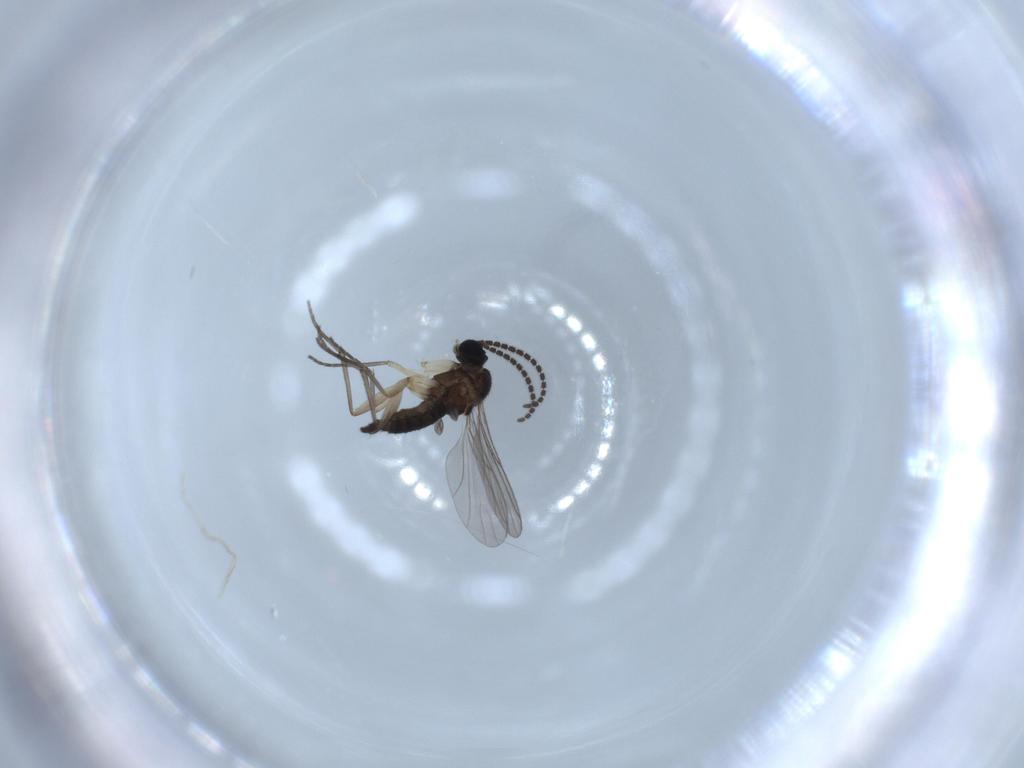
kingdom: Animalia
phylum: Arthropoda
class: Insecta
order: Diptera
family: Sciaridae
